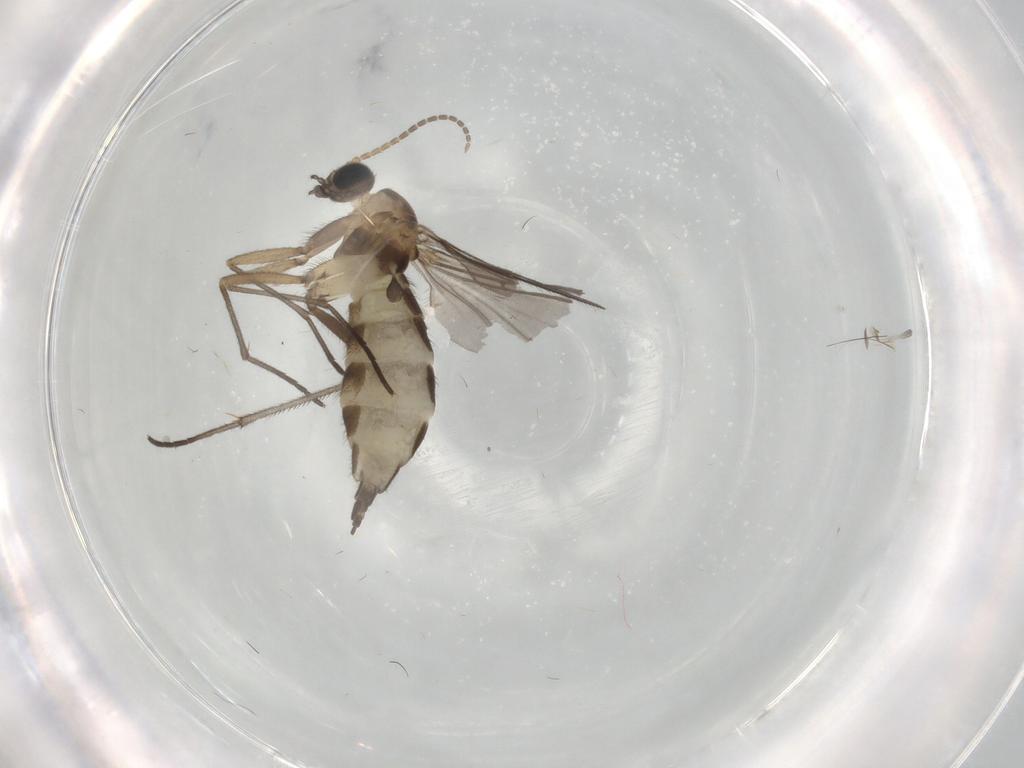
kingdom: Animalia
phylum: Arthropoda
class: Insecta
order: Diptera
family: Sciaridae
